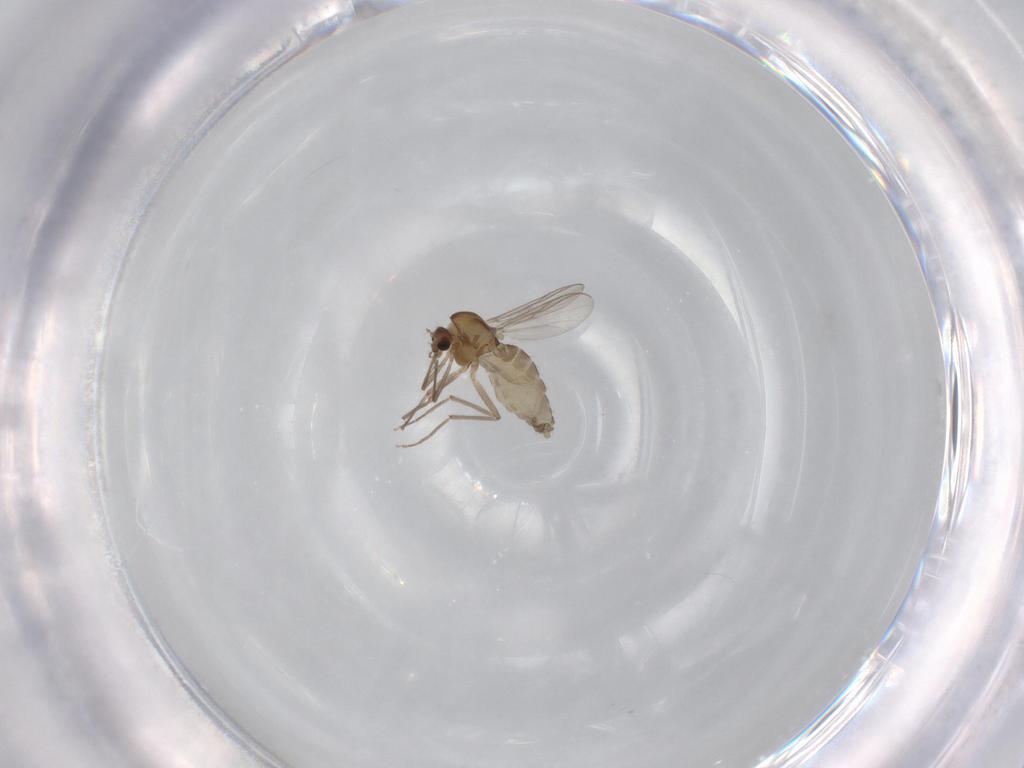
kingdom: Animalia
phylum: Arthropoda
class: Insecta
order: Diptera
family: Chironomidae
